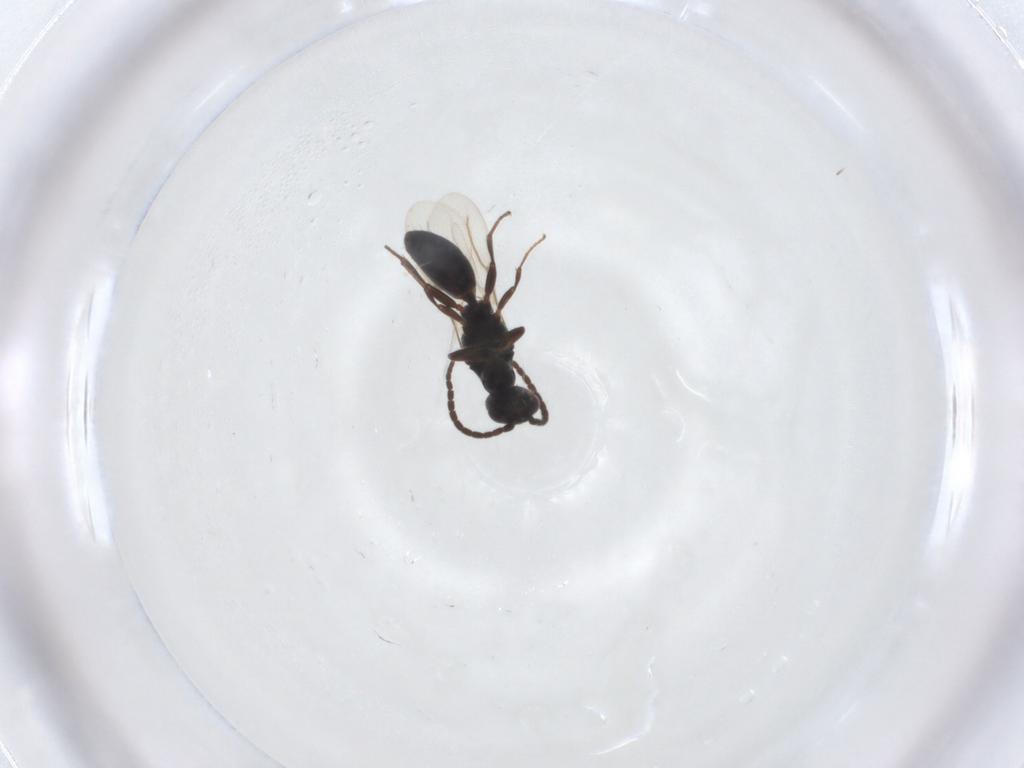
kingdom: Animalia
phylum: Arthropoda
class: Insecta
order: Hymenoptera
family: Bethylidae
